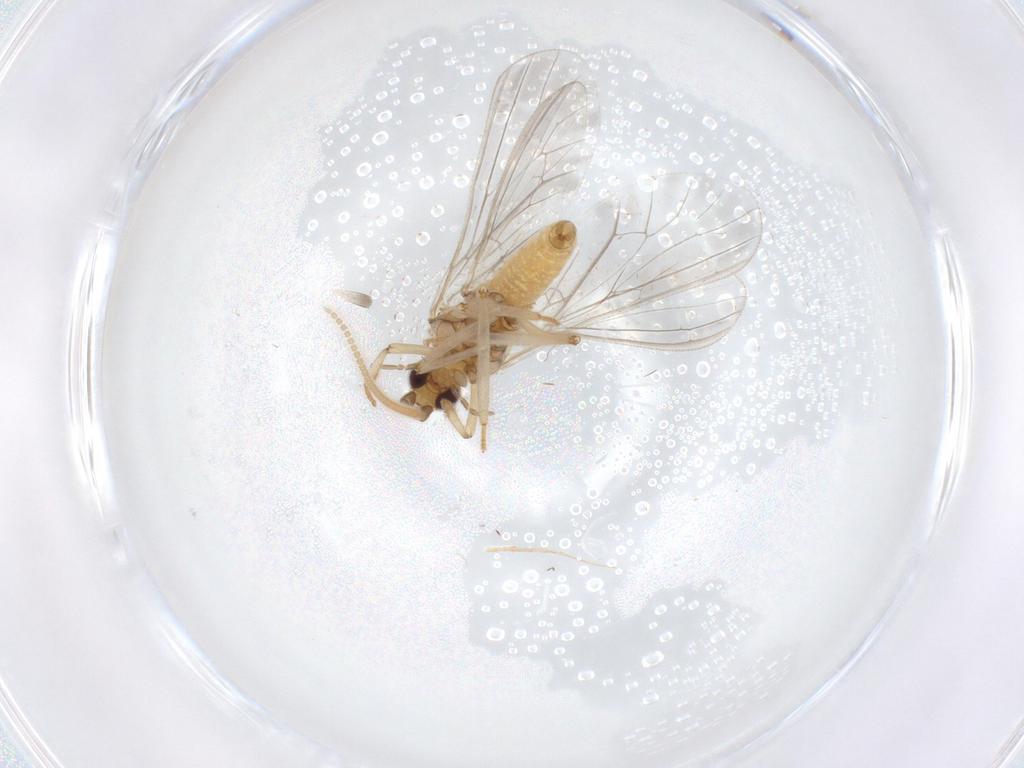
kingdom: Animalia
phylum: Arthropoda
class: Insecta
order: Neuroptera
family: Coniopterygidae
